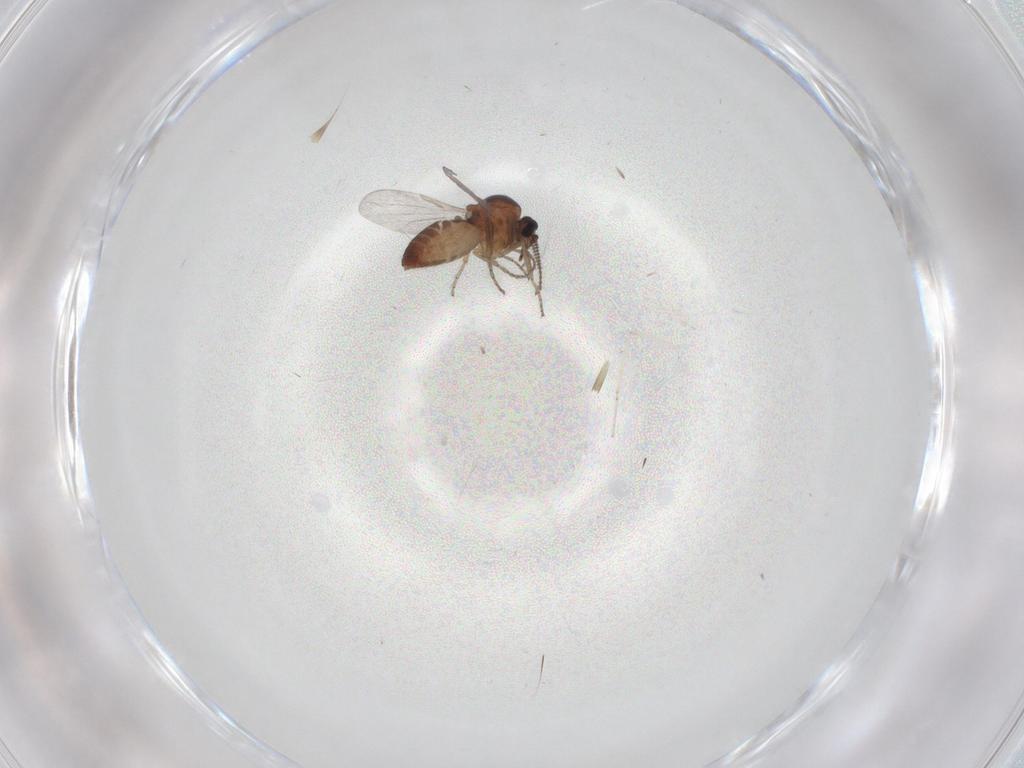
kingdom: Animalia
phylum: Arthropoda
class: Insecta
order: Diptera
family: Ceratopogonidae
